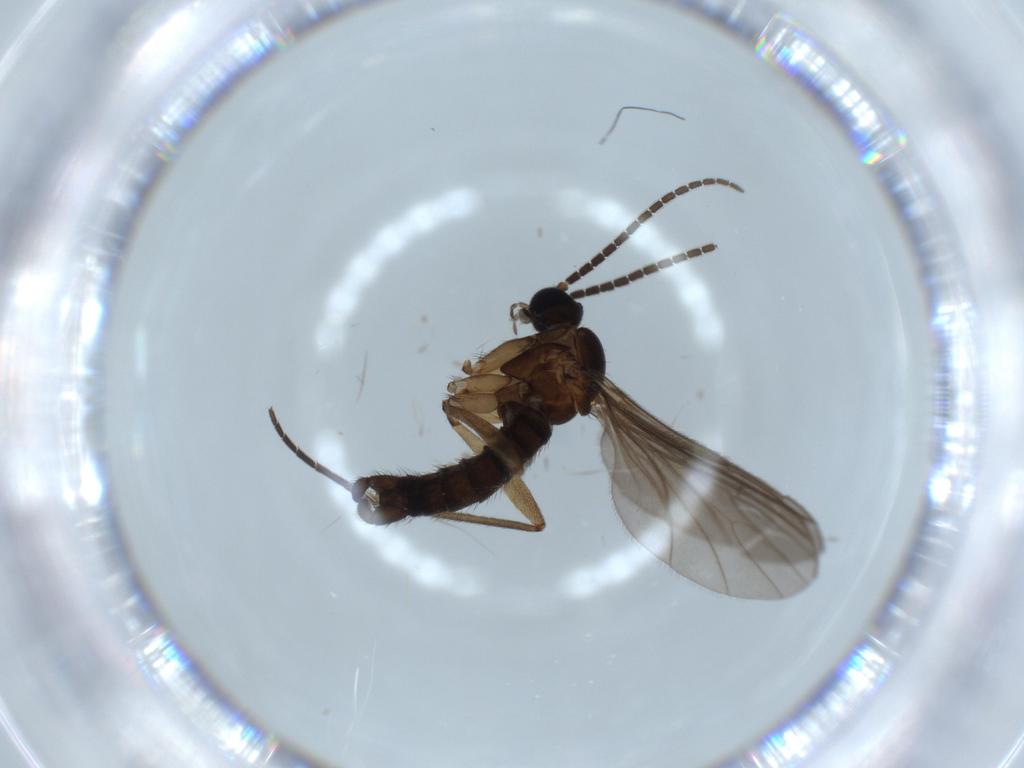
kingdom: Animalia
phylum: Arthropoda
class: Insecta
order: Diptera
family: Sciaridae
